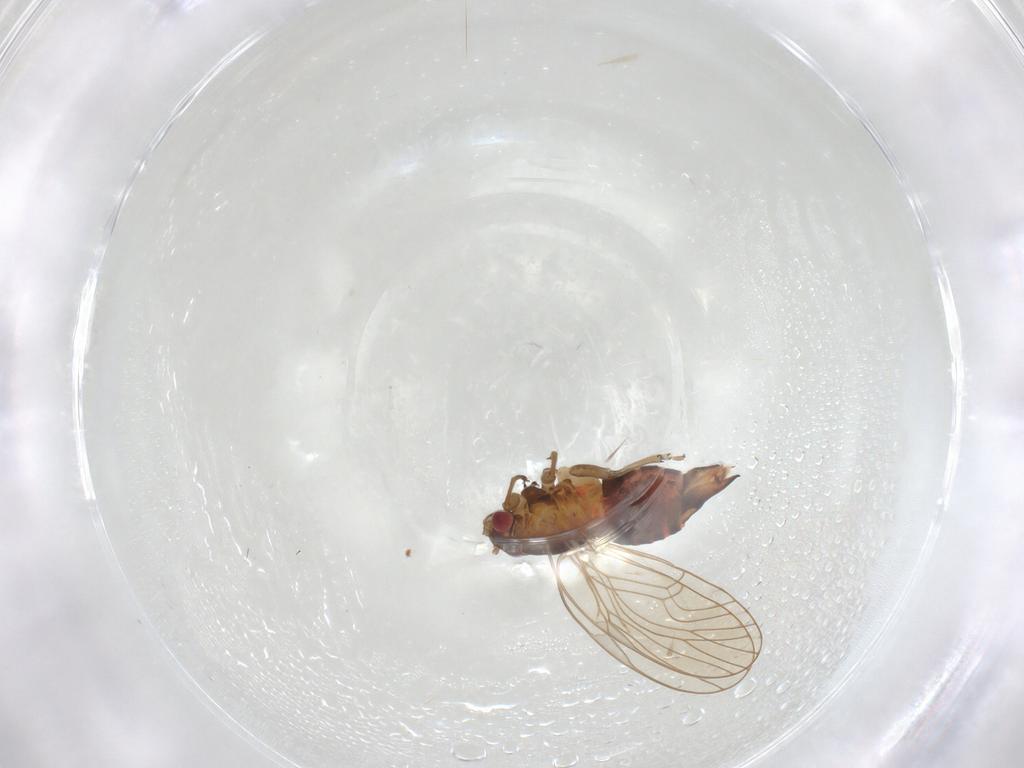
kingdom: Animalia
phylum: Arthropoda
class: Insecta
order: Hemiptera
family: Psyllidae
